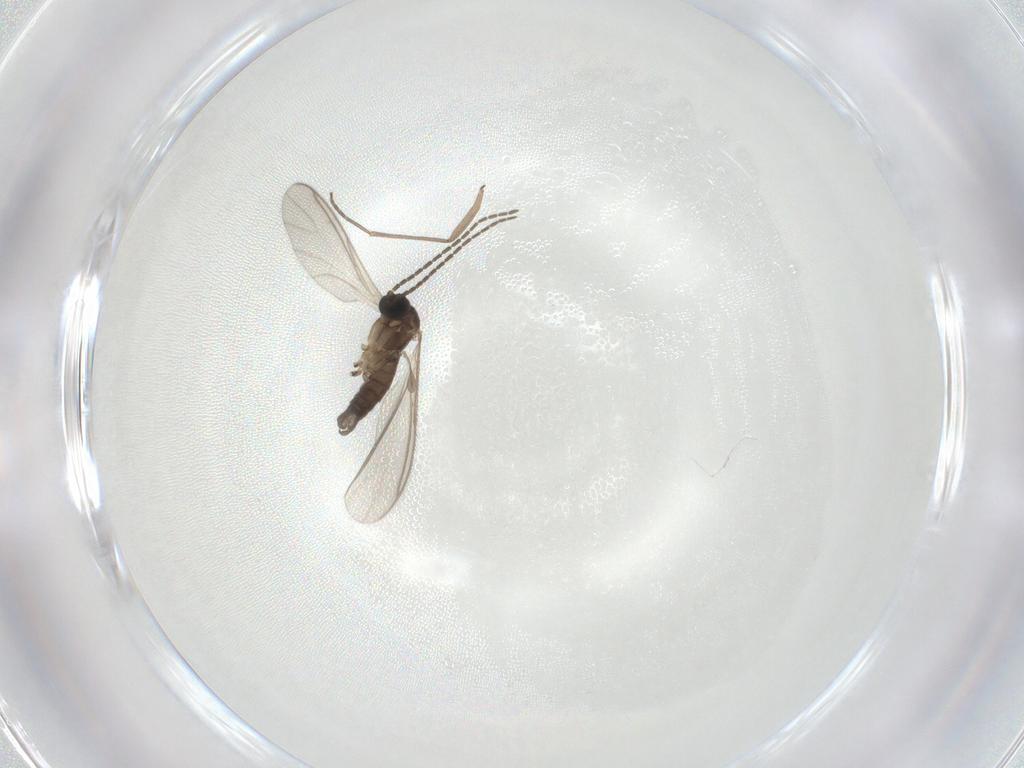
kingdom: Animalia
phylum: Arthropoda
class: Insecta
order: Diptera
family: Sciaridae
